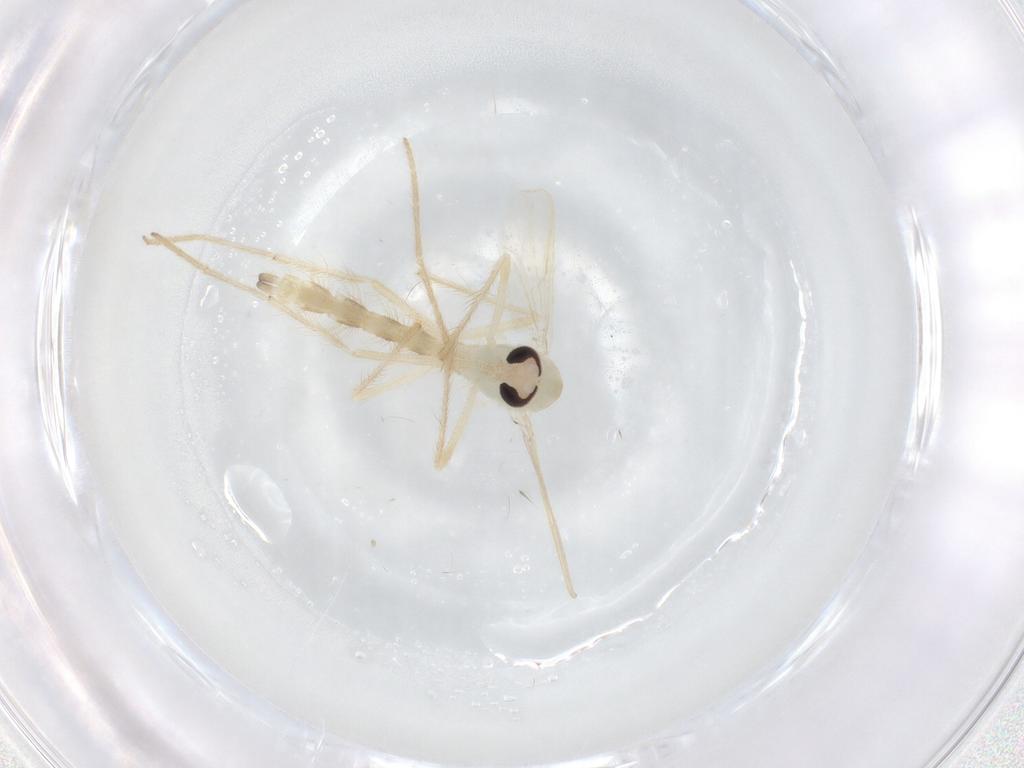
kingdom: Animalia
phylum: Arthropoda
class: Insecta
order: Diptera
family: Chironomidae
